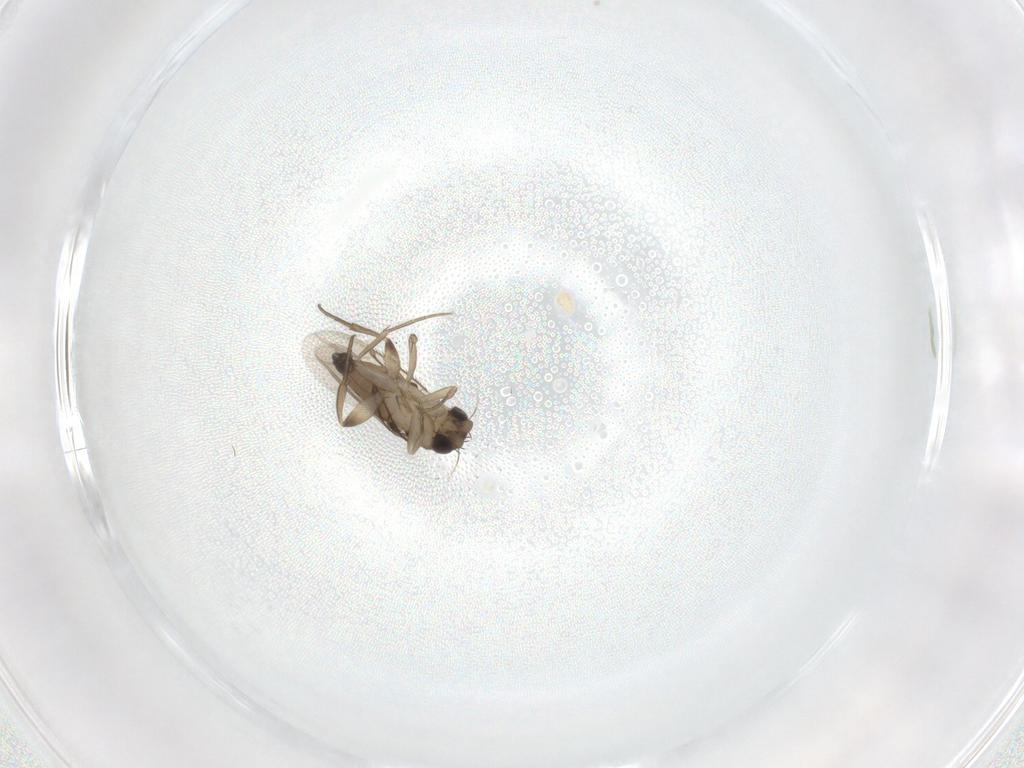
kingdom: Animalia
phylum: Arthropoda
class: Insecta
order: Diptera
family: Phoridae
